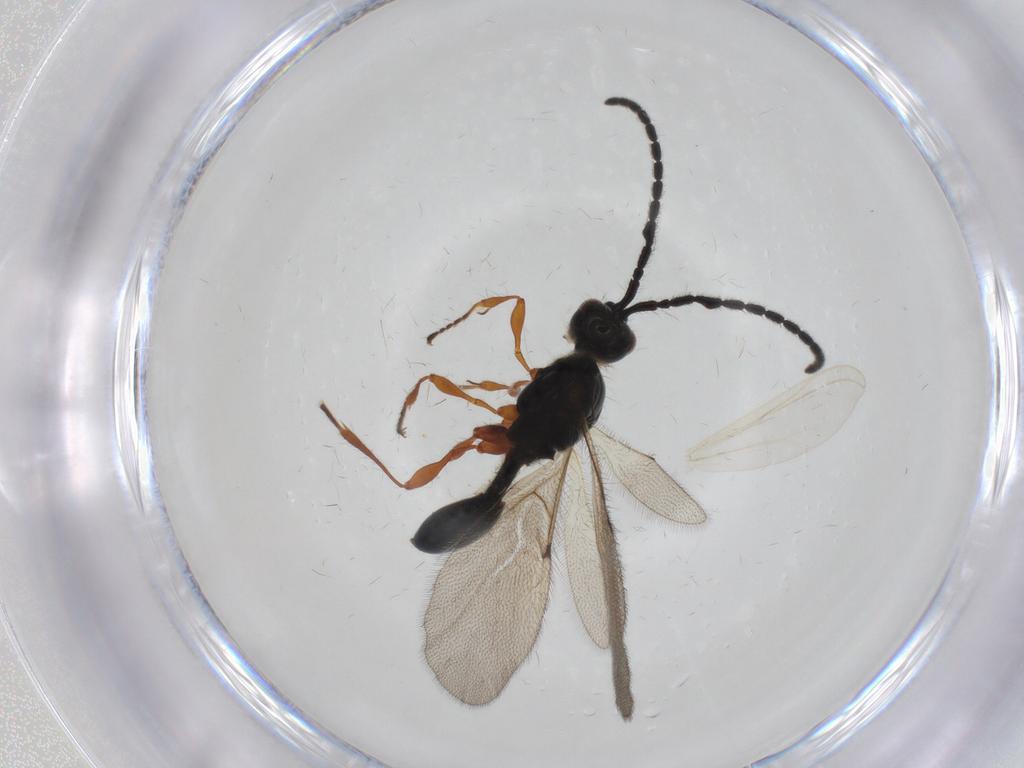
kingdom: Animalia
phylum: Arthropoda
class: Insecta
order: Hymenoptera
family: Diapriidae
